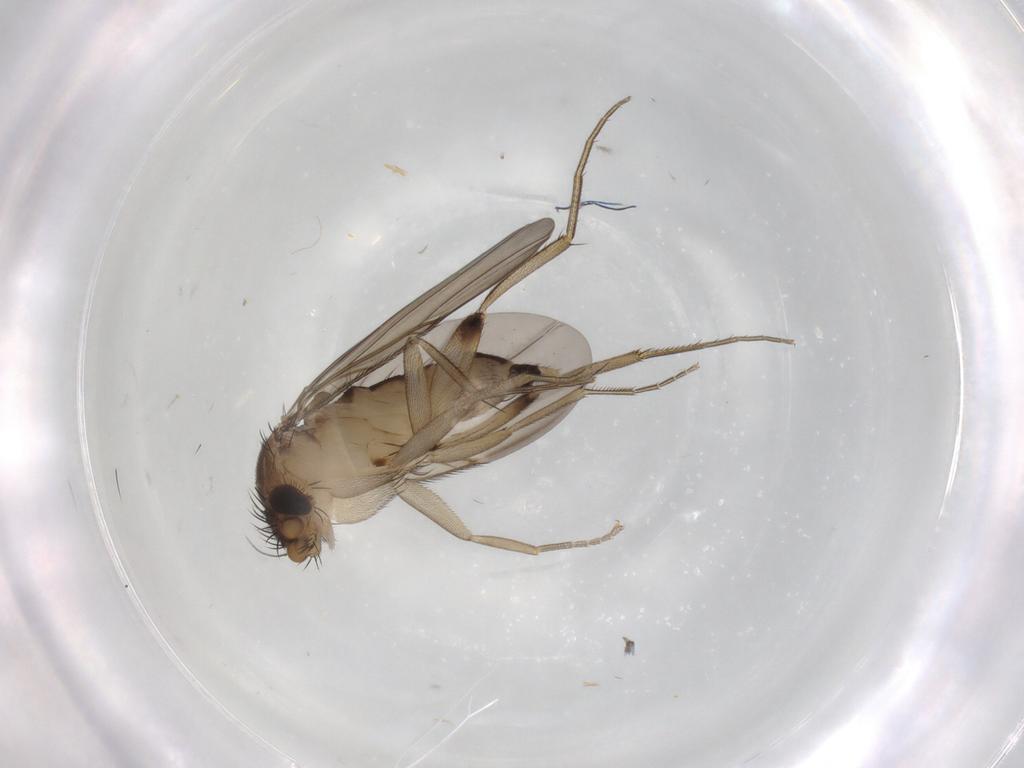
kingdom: Animalia
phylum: Arthropoda
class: Insecta
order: Diptera
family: Phoridae
